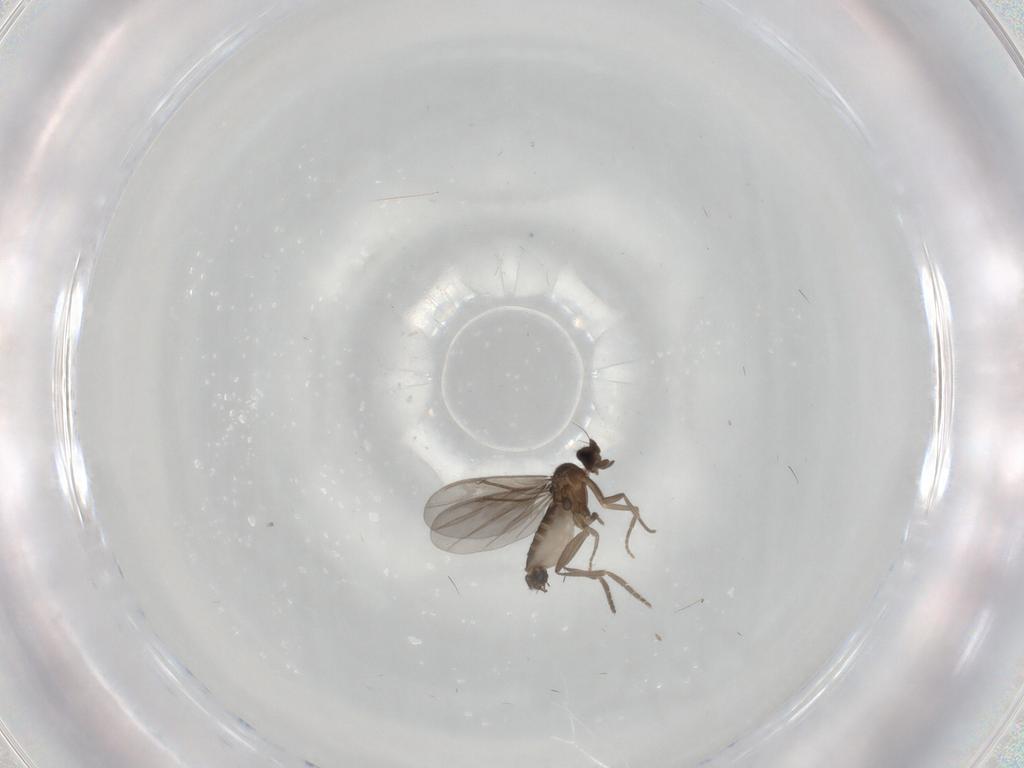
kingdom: Animalia
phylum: Arthropoda
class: Insecta
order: Diptera
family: Phoridae
